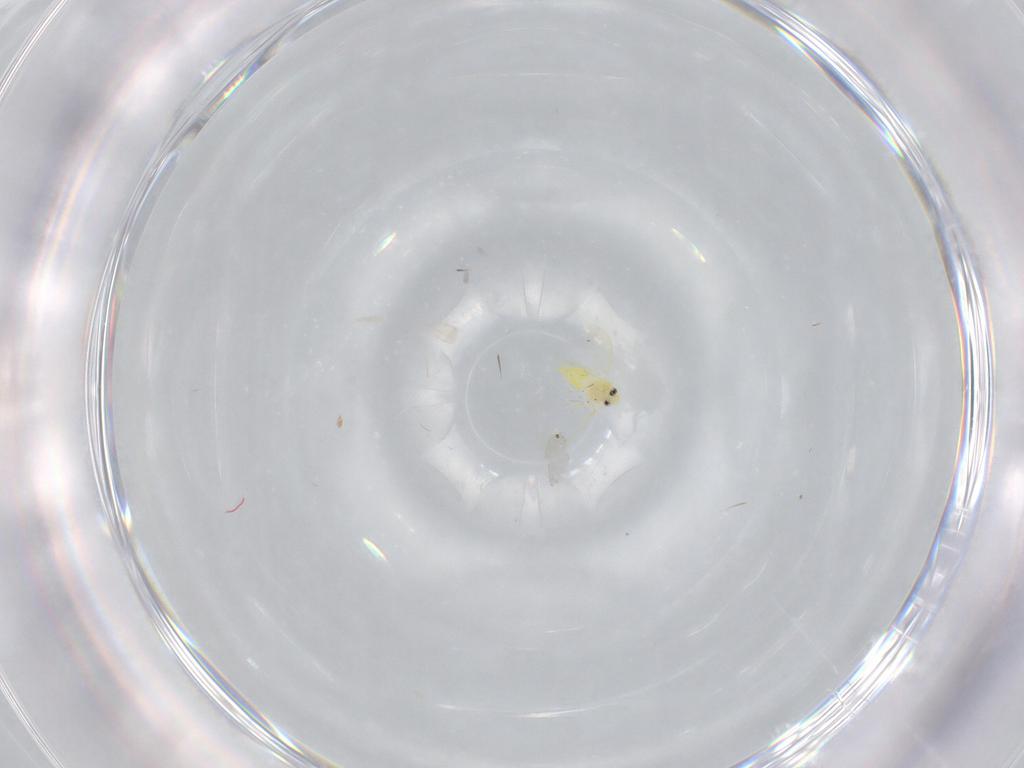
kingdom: Animalia
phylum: Arthropoda
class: Insecta
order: Hemiptera
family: Aleyrodidae
